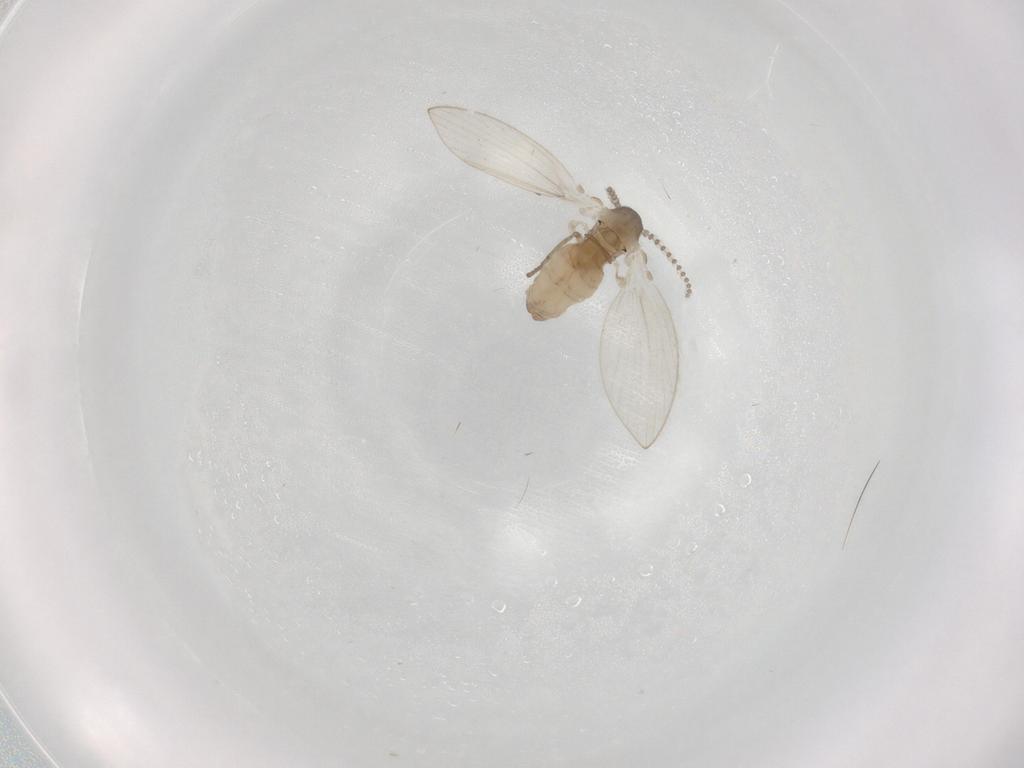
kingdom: Animalia
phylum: Arthropoda
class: Insecta
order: Diptera
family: Psychodidae
